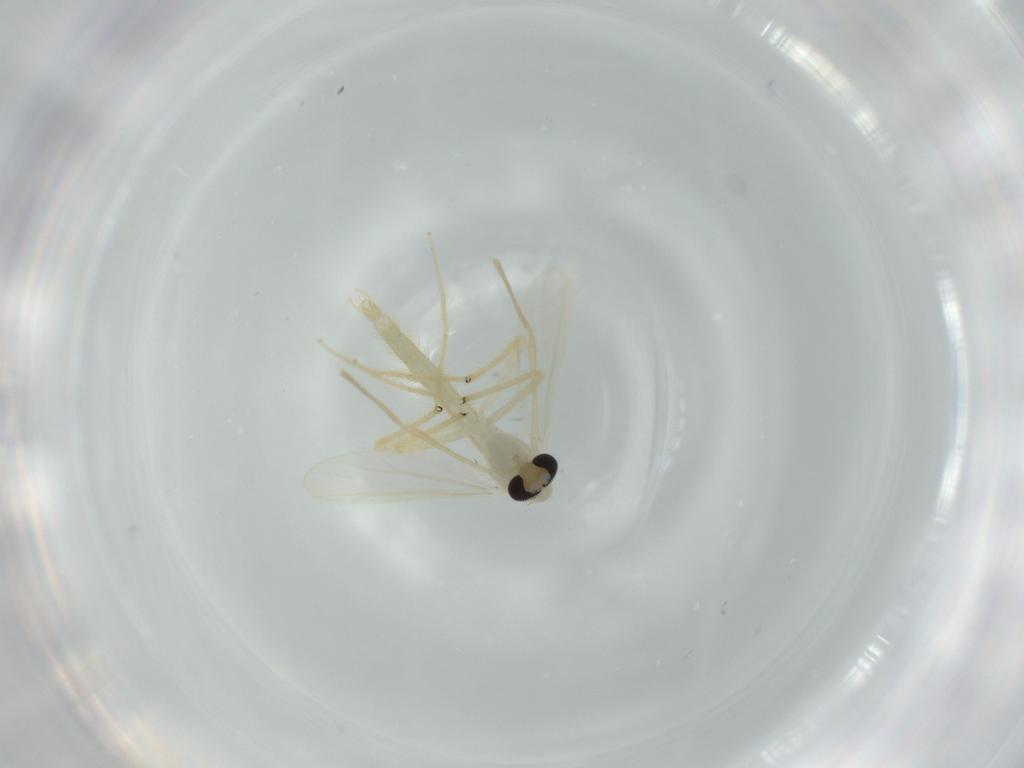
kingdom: Animalia
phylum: Arthropoda
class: Insecta
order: Diptera
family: Chironomidae
